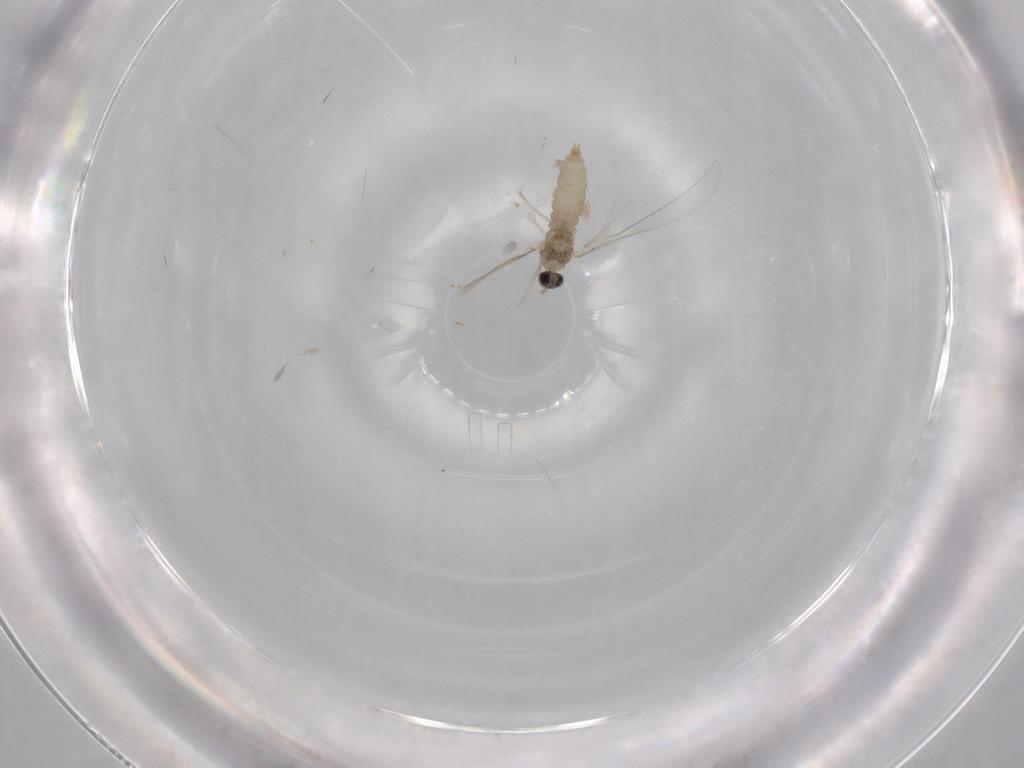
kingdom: Animalia
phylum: Arthropoda
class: Insecta
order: Diptera
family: Cecidomyiidae
